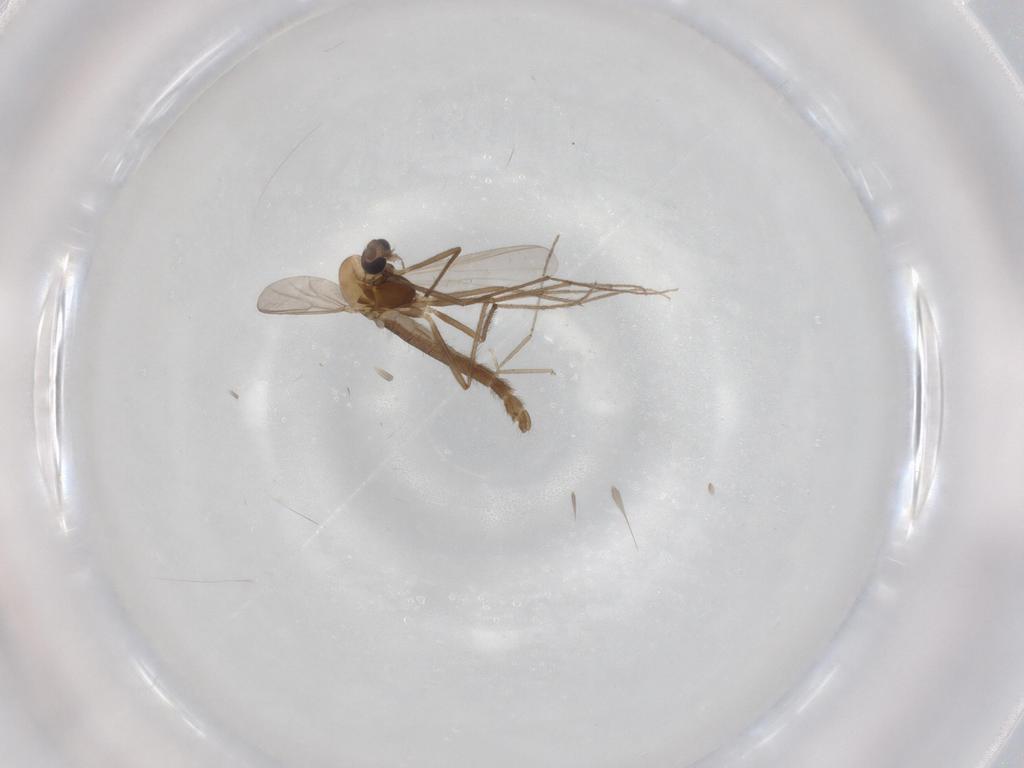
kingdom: Animalia
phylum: Arthropoda
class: Insecta
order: Diptera
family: Chironomidae
